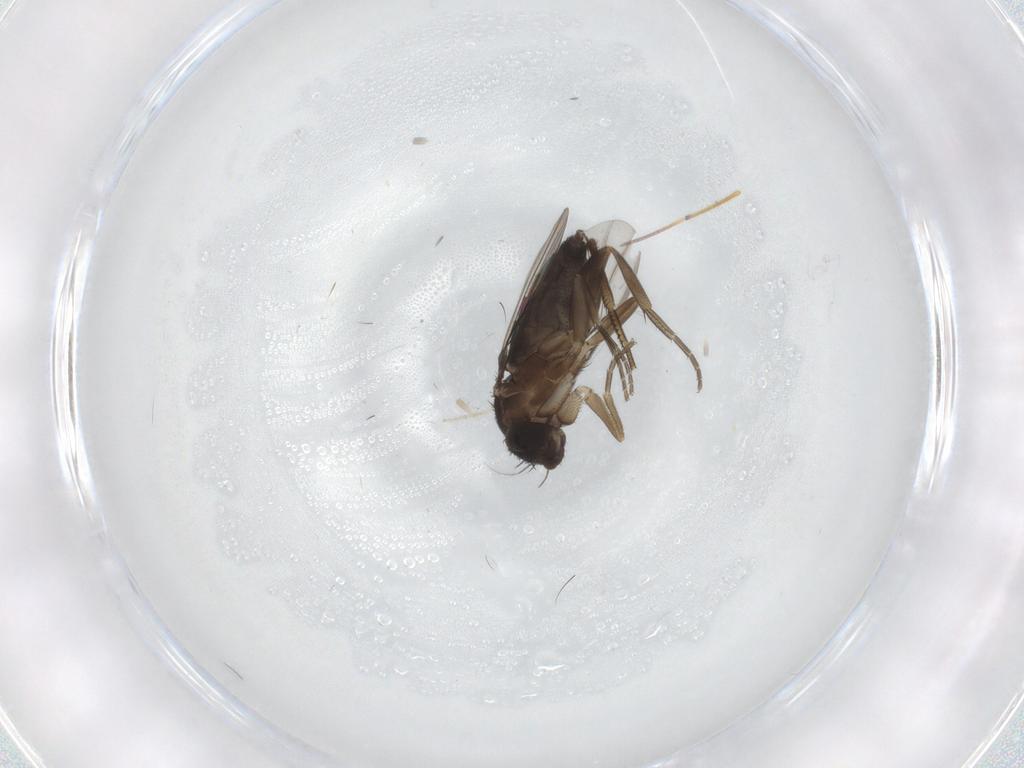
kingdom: Animalia
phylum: Arthropoda
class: Insecta
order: Diptera
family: Phoridae
